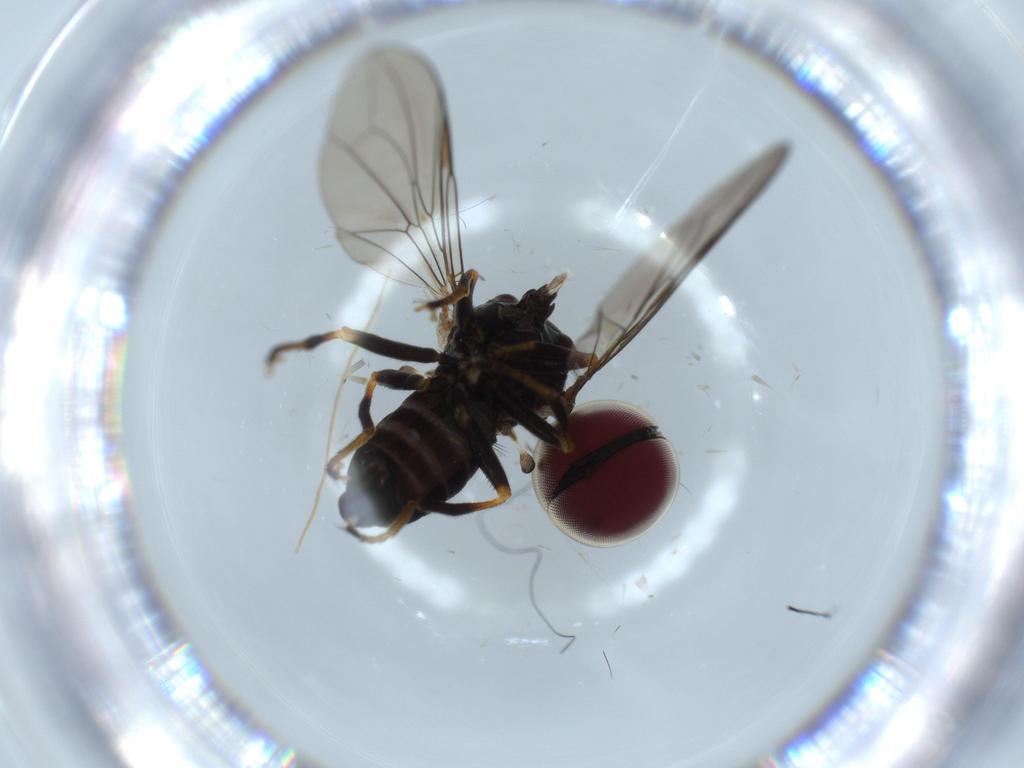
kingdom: Animalia
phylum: Arthropoda
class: Insecta
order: Diptera
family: Pipunculidae
